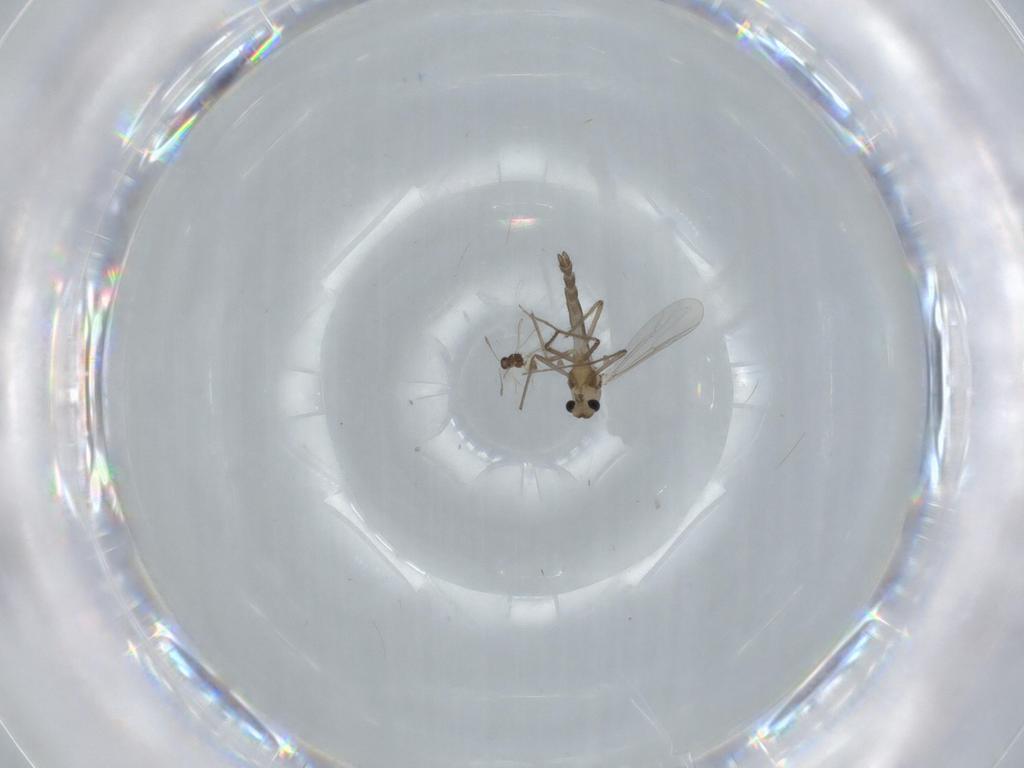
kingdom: Animalia
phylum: Arthropoda
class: Insecta
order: Diptera
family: Chironomidae
